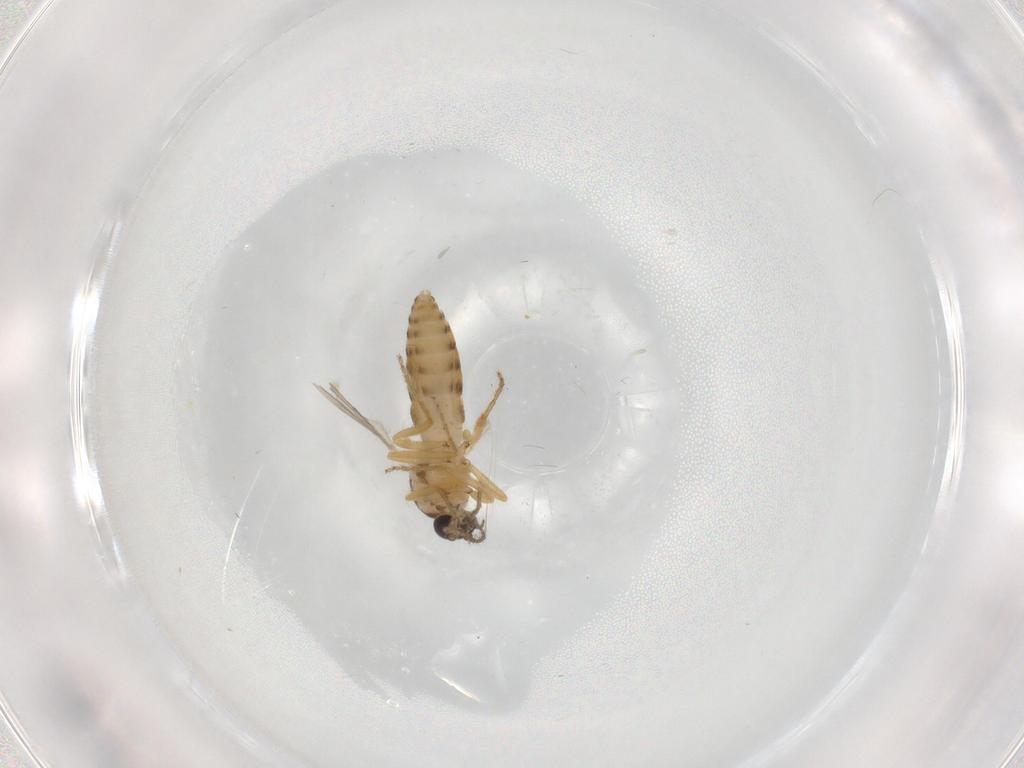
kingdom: Animalia
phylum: Arthropoda
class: Insecta
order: Diptera
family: Ceratopogonidae
